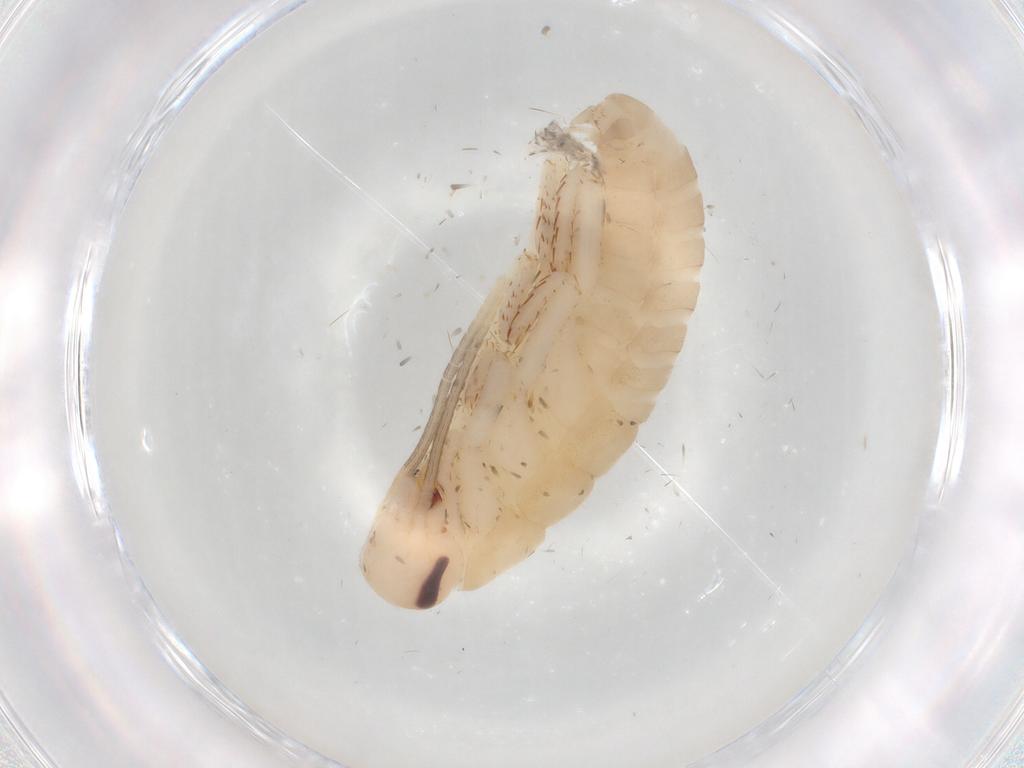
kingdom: Animalia
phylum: Arthropoda
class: Insecta
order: Blattodea
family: Blaberidae
